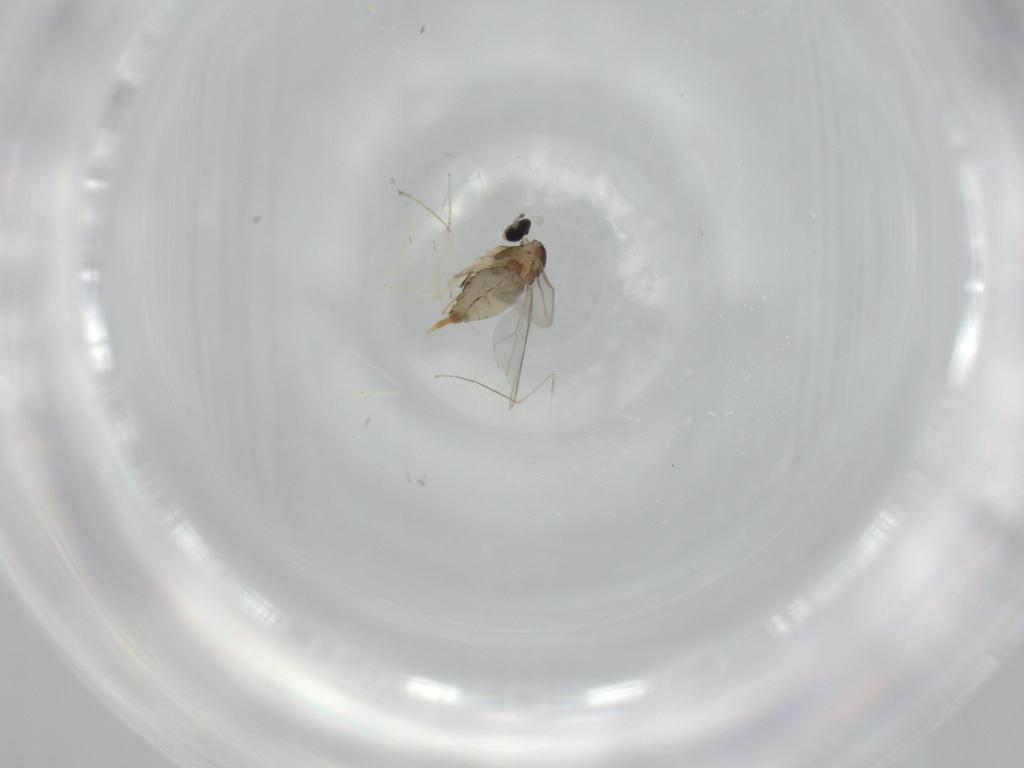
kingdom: Animalia
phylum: Arthropoda
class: Insecta
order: Diptera
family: Cecidomyiidae
